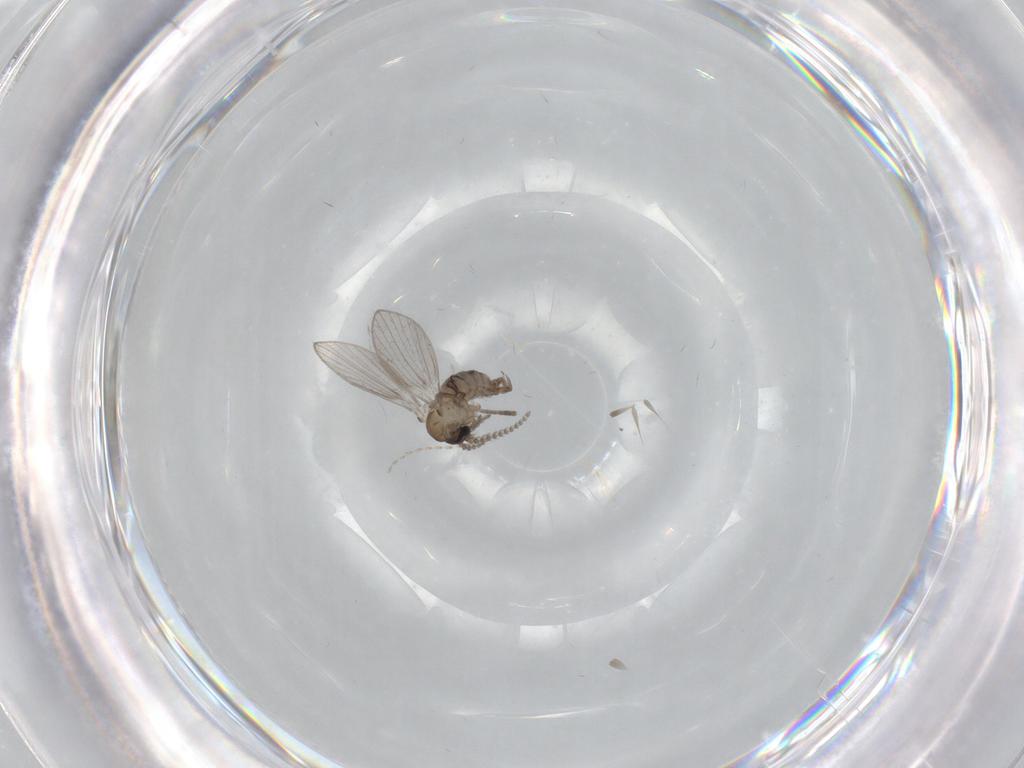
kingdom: Animalia
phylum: Arthropoda
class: Insecta
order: Diptera
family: Psychodidae
